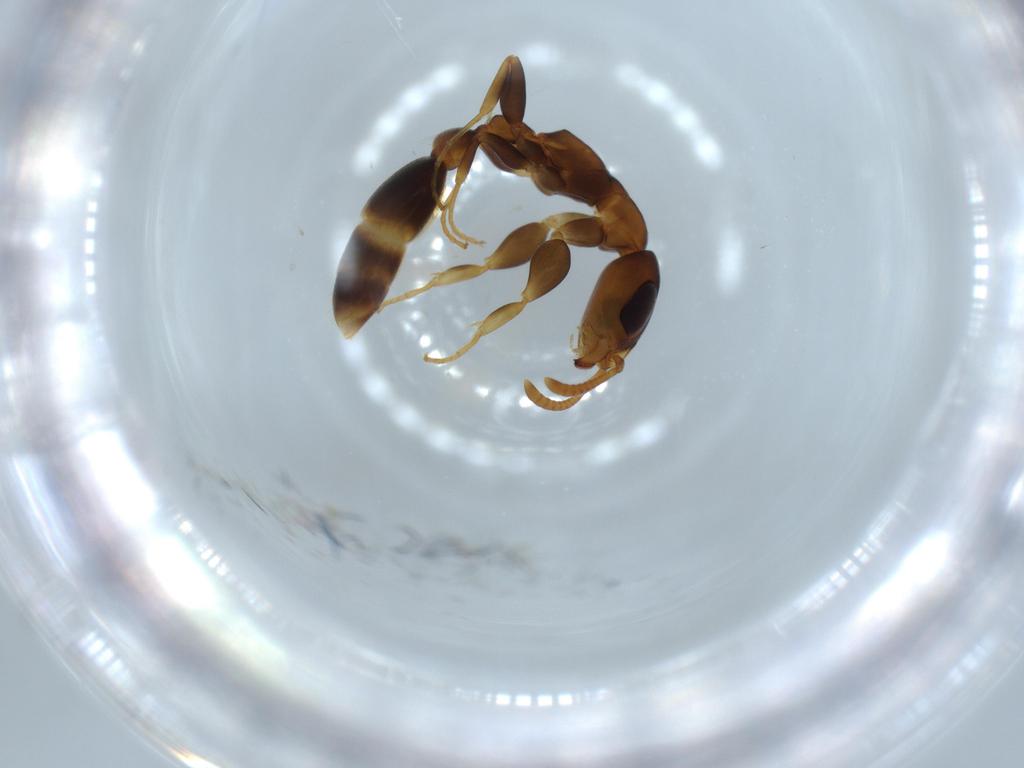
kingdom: Animalia
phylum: Arthropoda
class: Insecta
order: Hymenoptera
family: Formicidae
